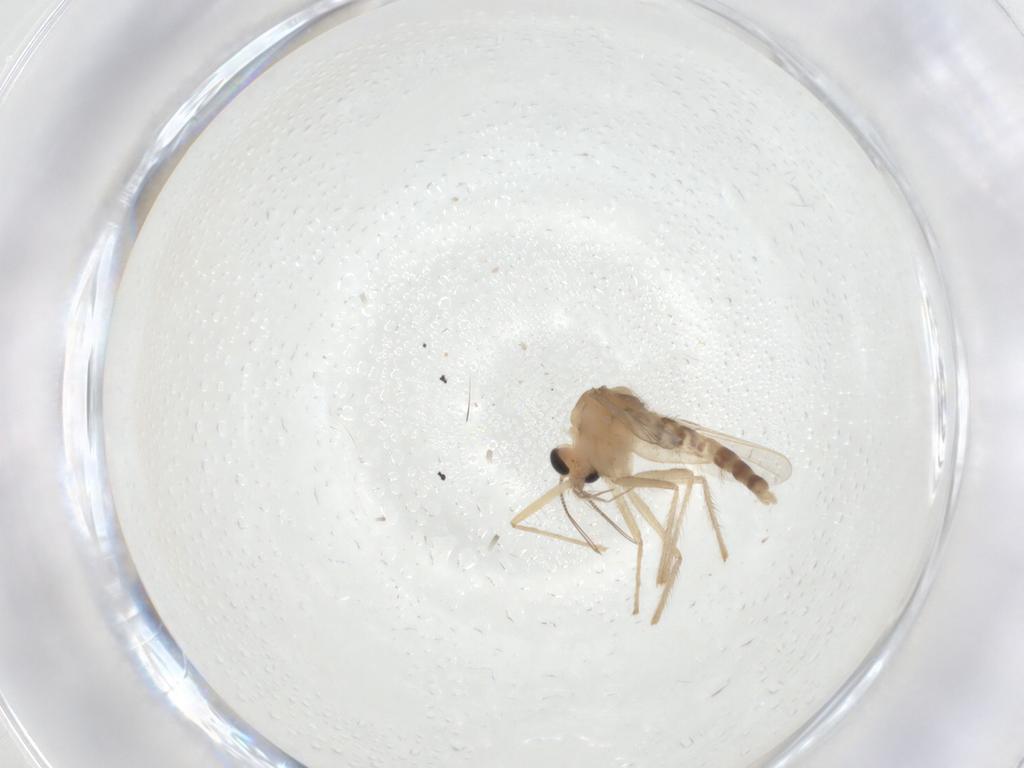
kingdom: Animalia
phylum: Arthropoda
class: Insecta
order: Diptera
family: Chironomidae
